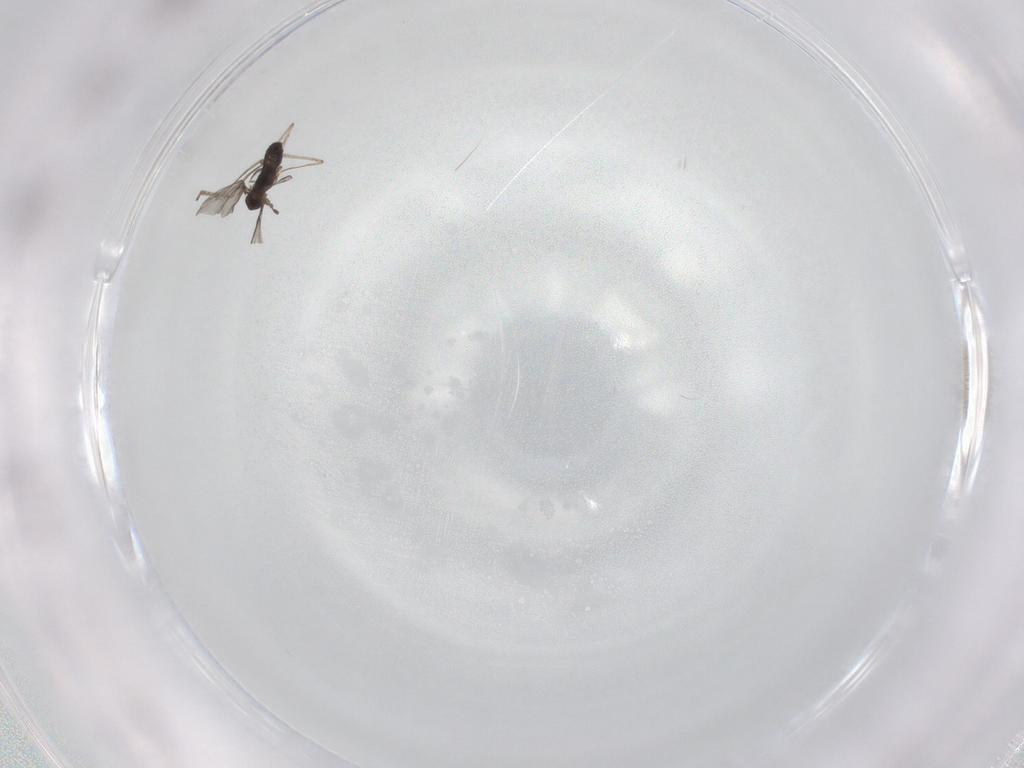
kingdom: Animalia
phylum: Arthropoda
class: Insecta
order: Diptera
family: Cecidomyiidae
